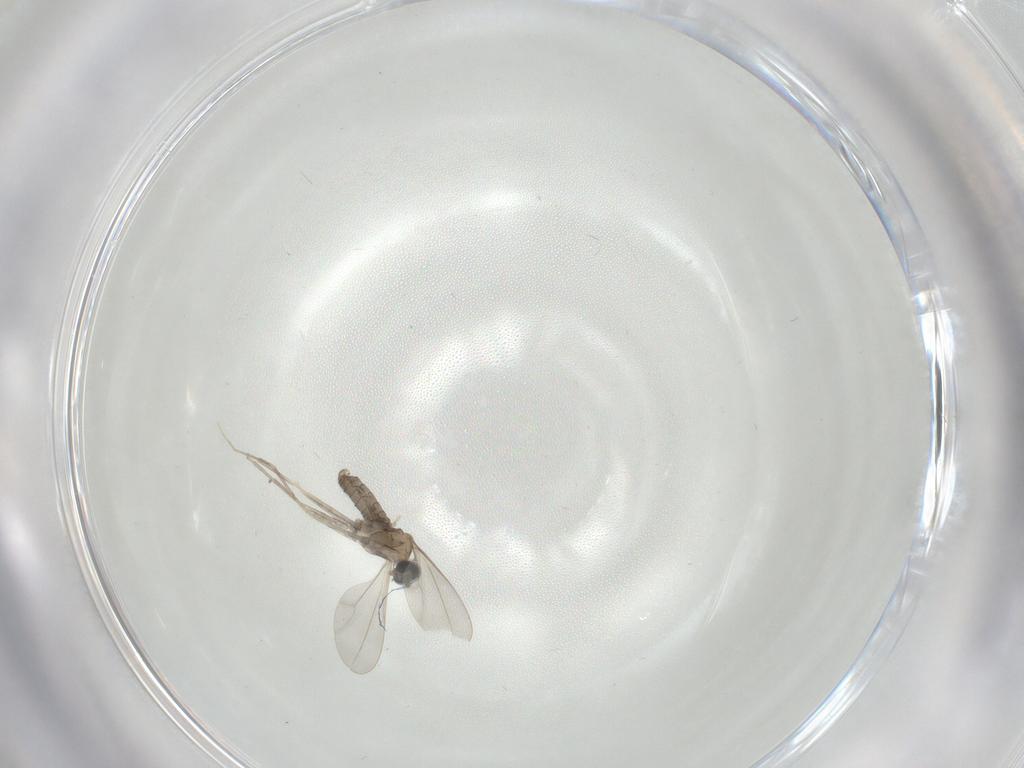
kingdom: Animalia
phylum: Arthropoda
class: Insecta
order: Diptera
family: Cecidomyiidae
